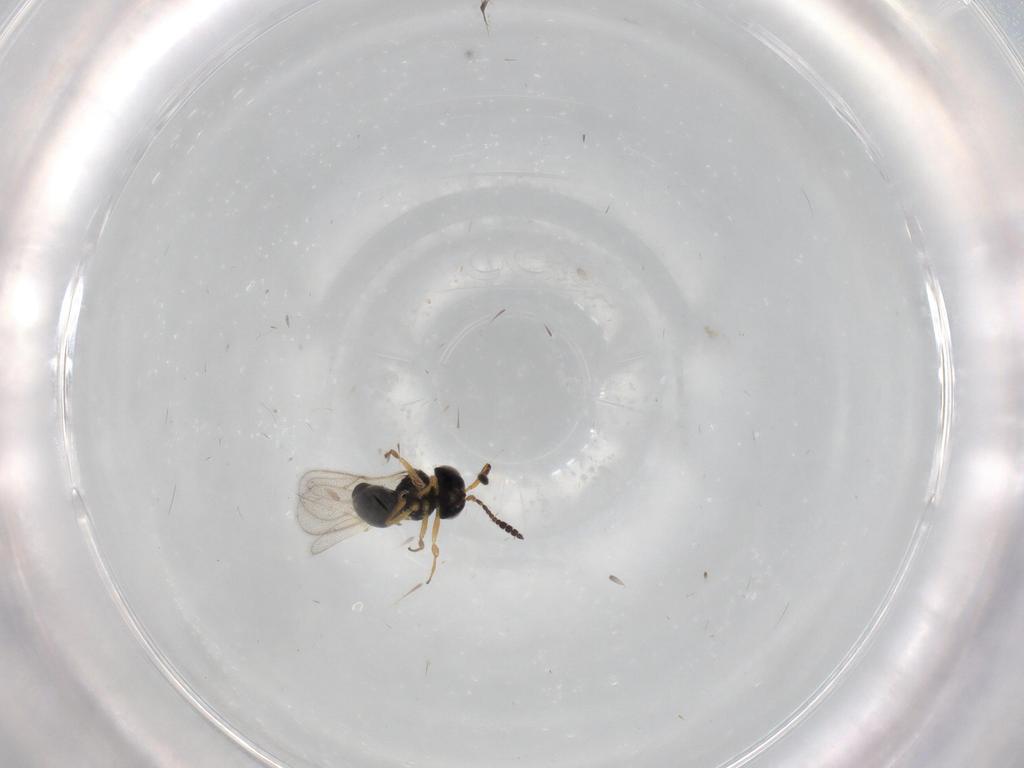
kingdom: Animalia
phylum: Arthropoda
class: Insecta
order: Hymenoptera
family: Scelionidae
